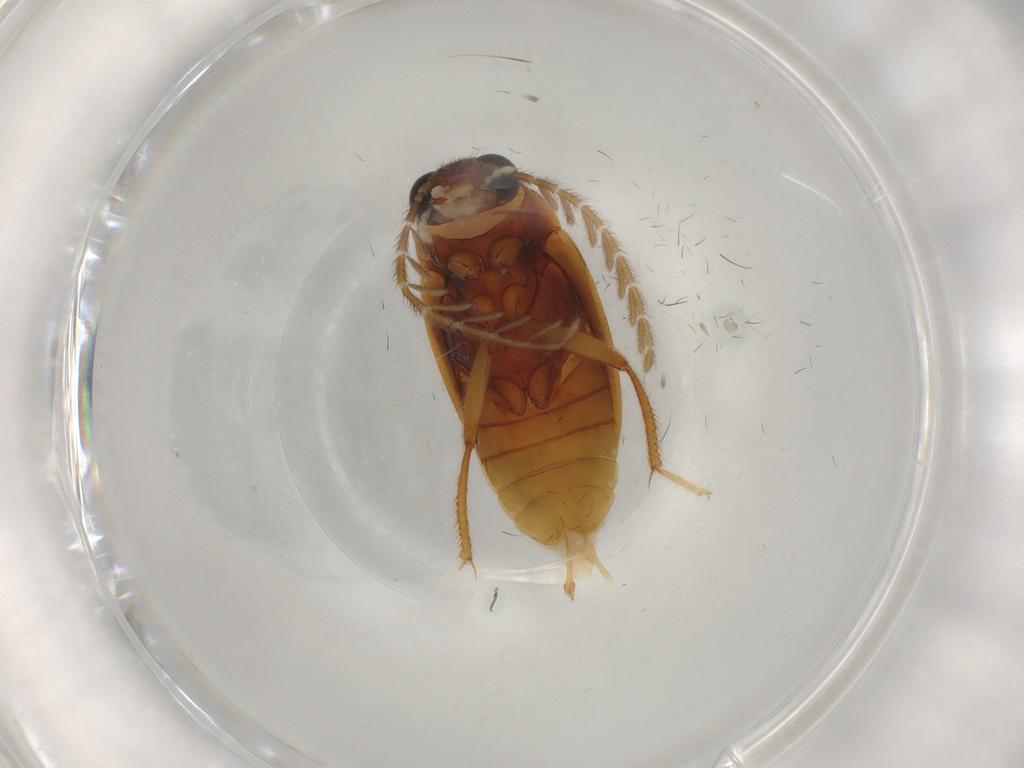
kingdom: Animalia
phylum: Arthropoda
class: Insecta
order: Coleoptera
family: Ptilodactylidae
